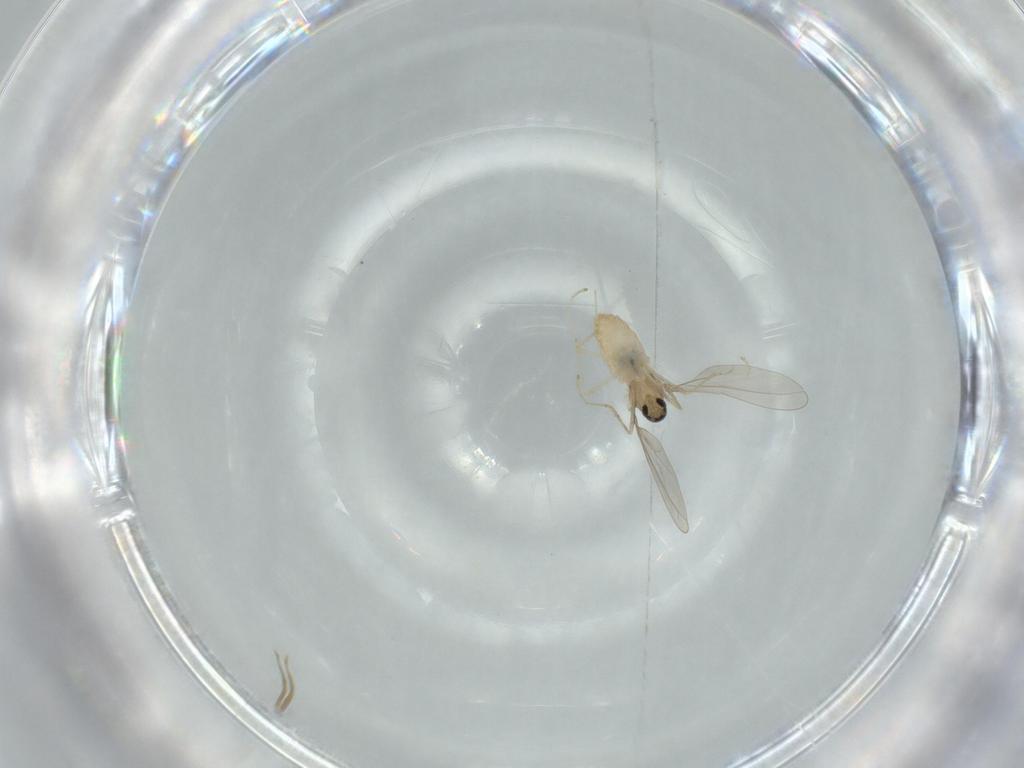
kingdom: Animalia
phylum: Arthropoda
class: Insecta
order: Diptera
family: Cecidomyiidae
